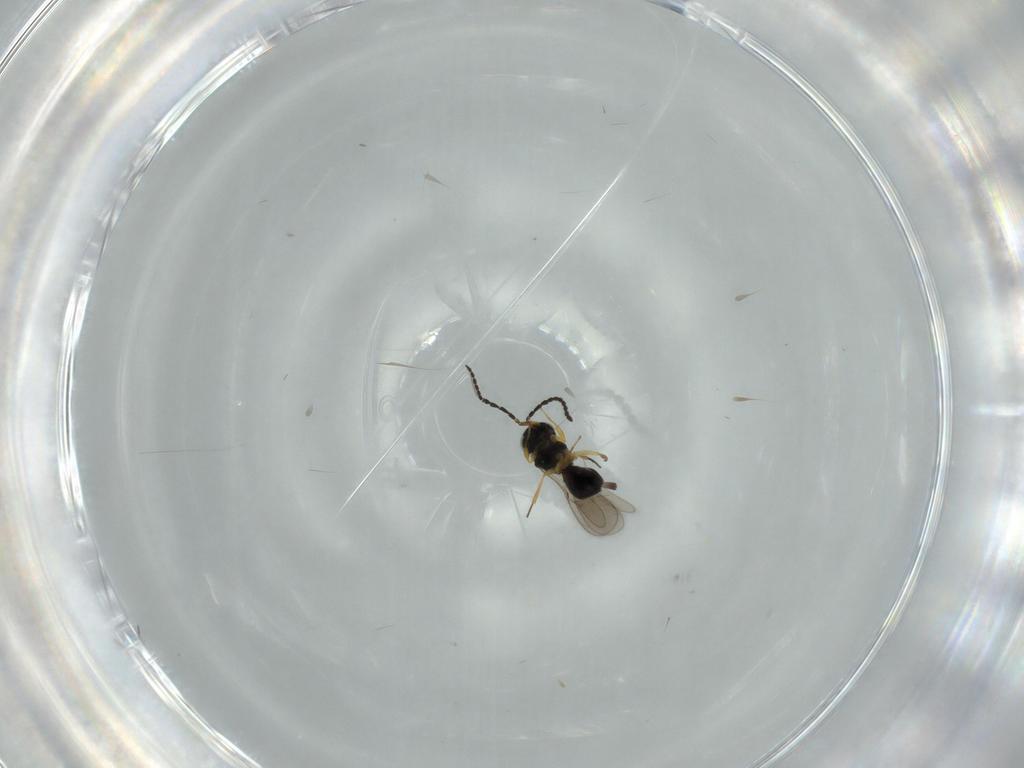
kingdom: Animalia
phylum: Arthropoda
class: Insecta
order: Hymenoptera
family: Scelionidae
